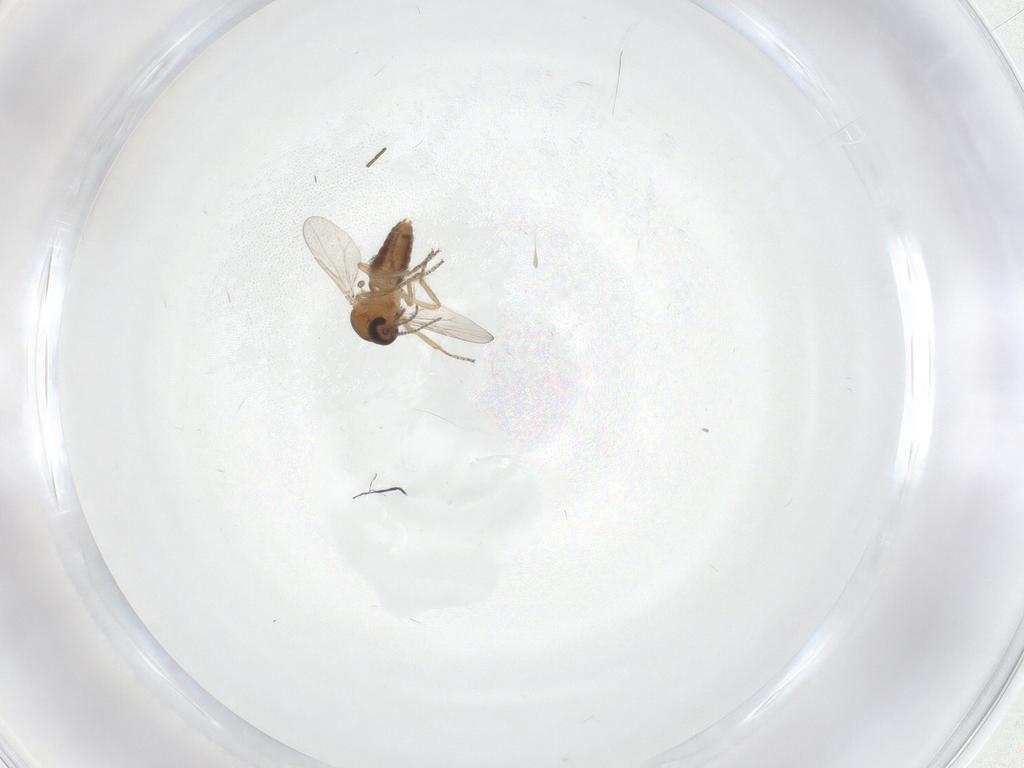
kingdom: Animalia
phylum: Arthropoda
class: Insecta
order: Diptera
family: Ceratopogonidae
